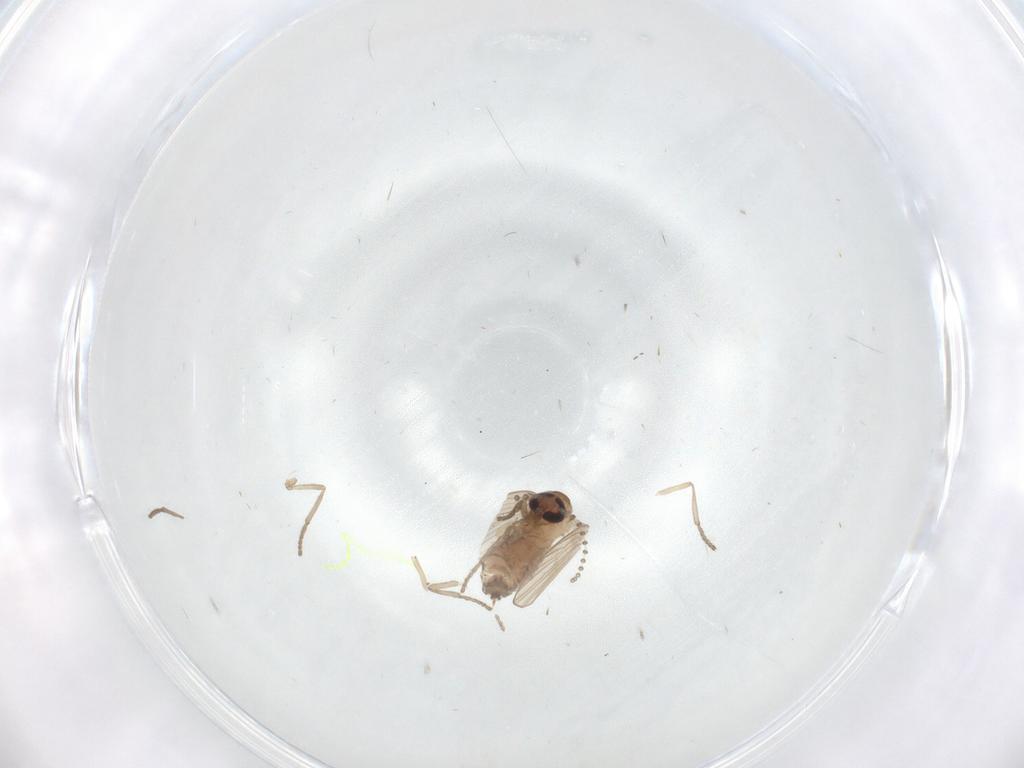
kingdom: Animalia
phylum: Arthropoda
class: Insecta
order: Diptera
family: Psychodidae
